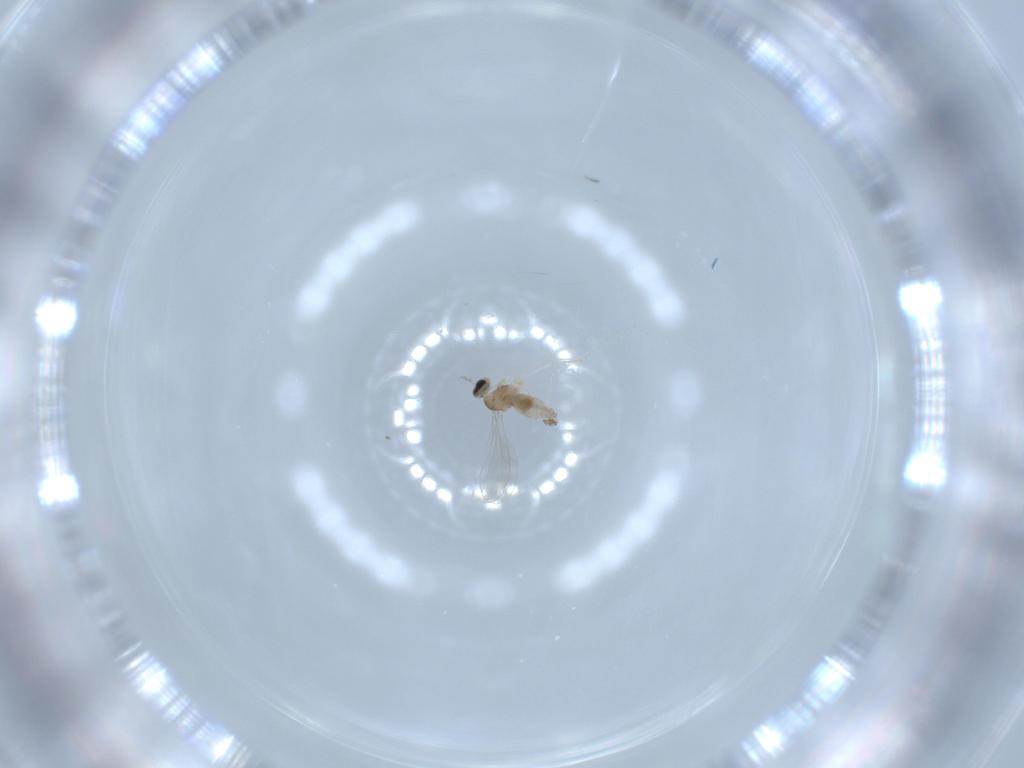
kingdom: Animalia
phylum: Arthropoda
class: Insecta
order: Diptera
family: Cecidomyiidae
